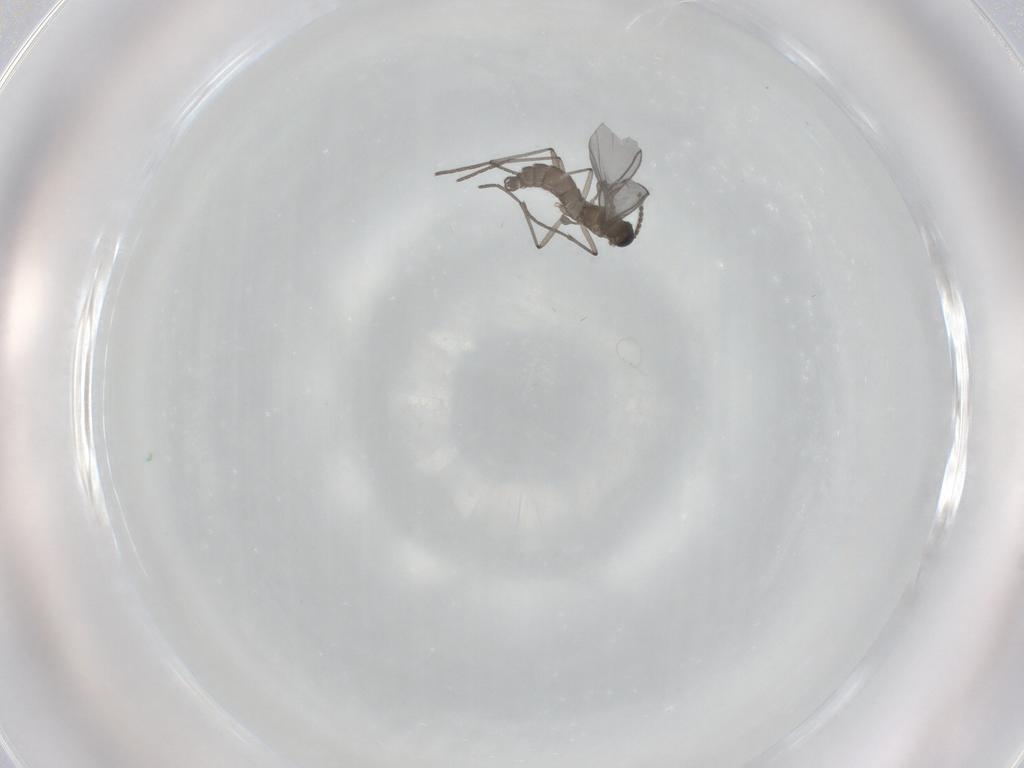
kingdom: Animalia
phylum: Arthropoda
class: Insecta
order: Diptera
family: Sciaridae
